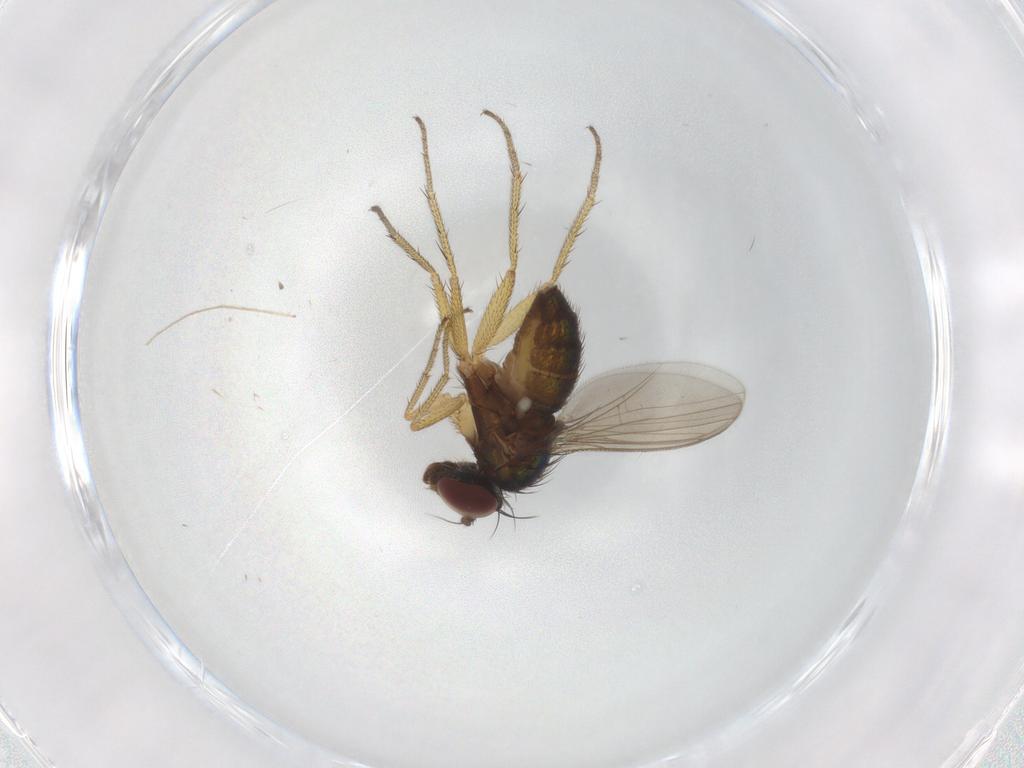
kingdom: Animalia
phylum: Arthropoda
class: Insecta
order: Diptera
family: Dolichopodidae
